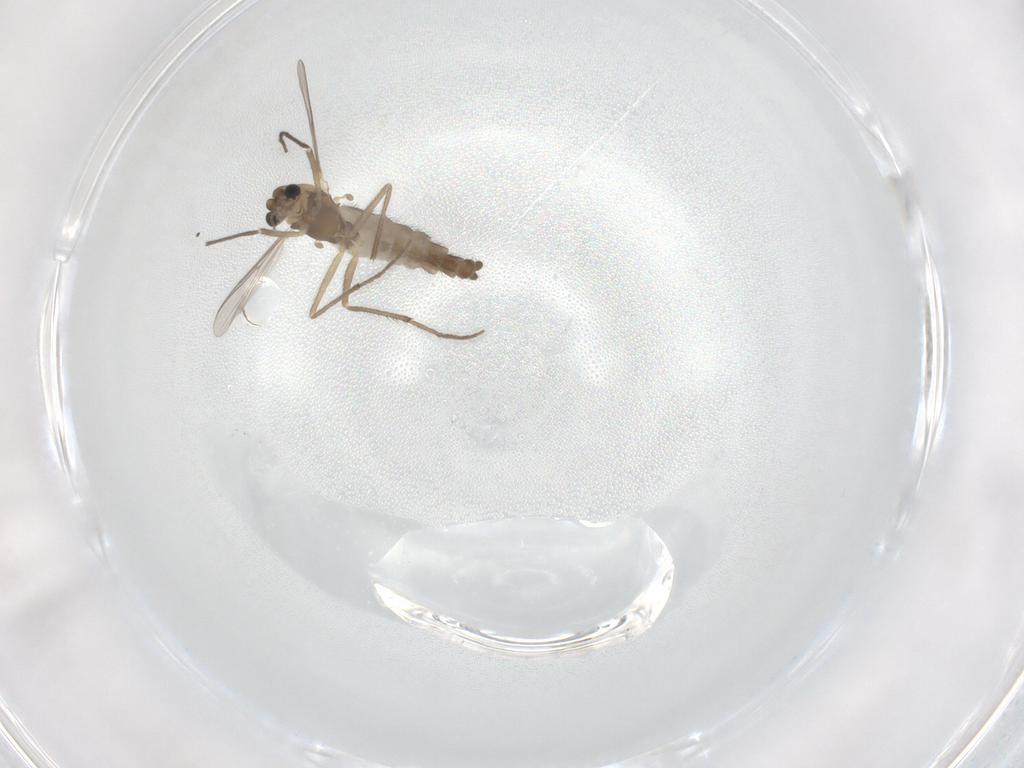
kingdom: Animalia
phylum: Arthropoda
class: Insecta
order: Diptera
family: Chironomidae
